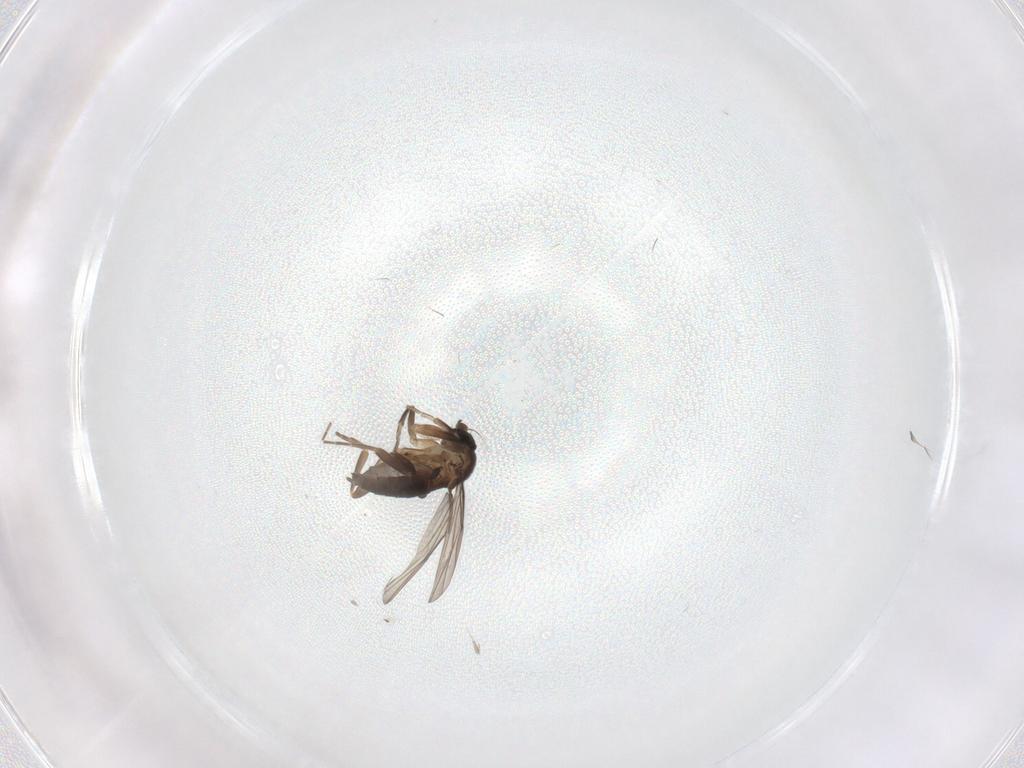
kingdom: Animalia
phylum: Arthropoda
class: Insecta
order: Diptera
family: Phoridae
